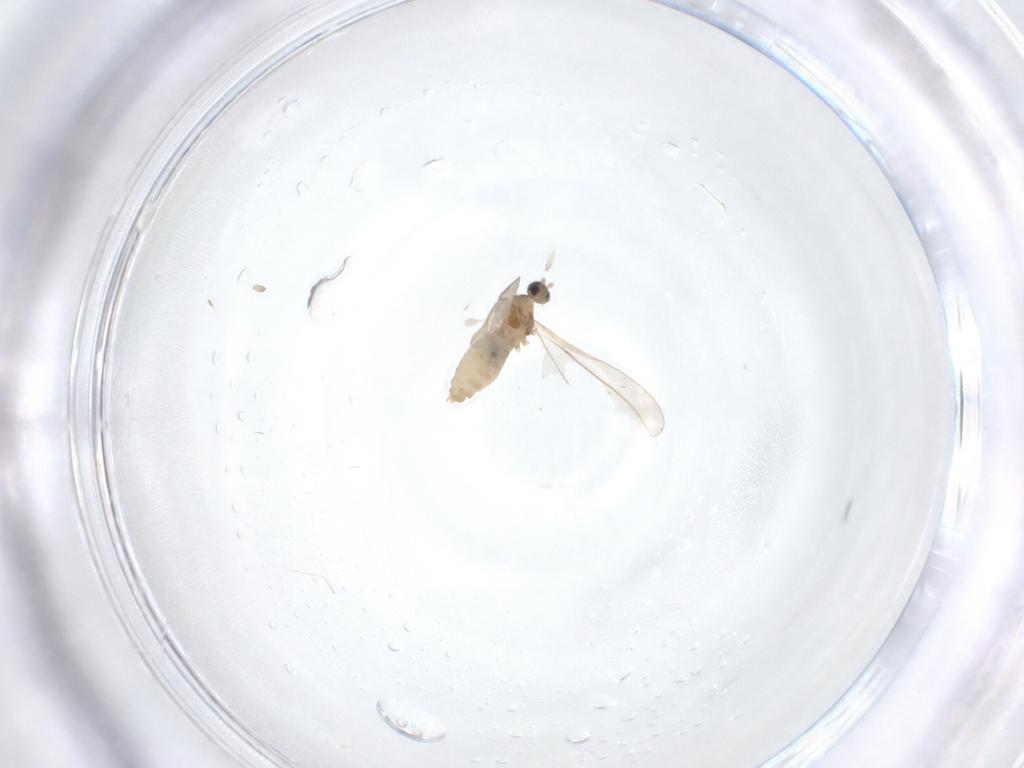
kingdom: Animalia
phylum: Arthropoda
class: Insecta
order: Diptera
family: Cecidomyiidae
